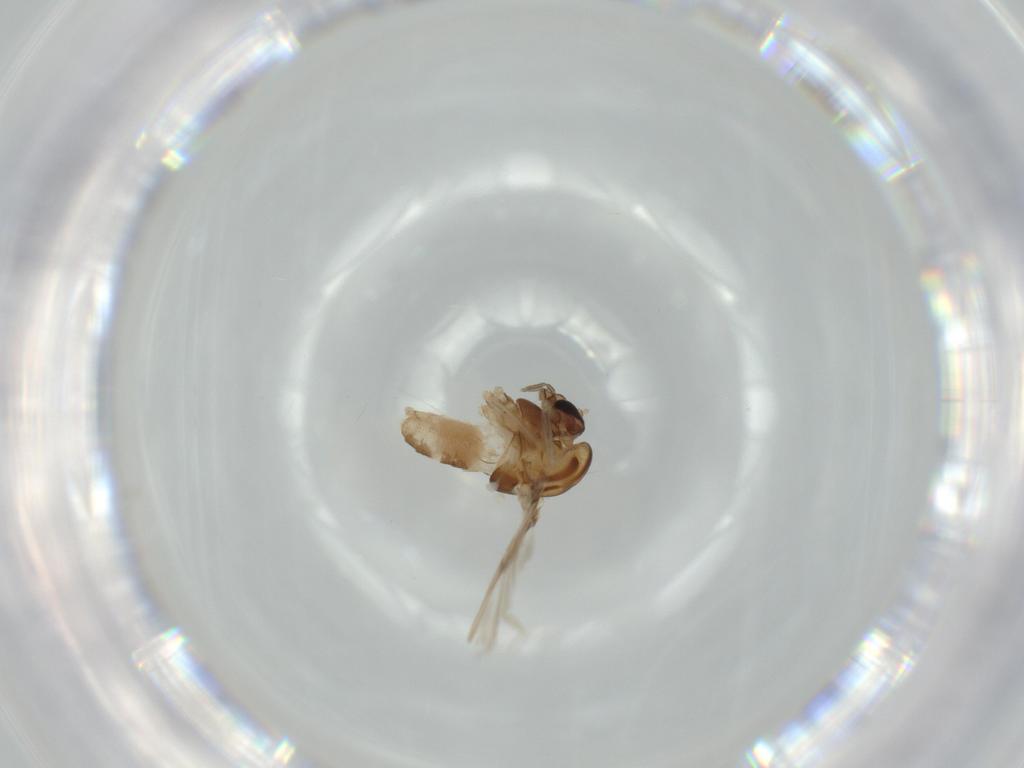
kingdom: Animalia
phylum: Arthropoda
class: Insecta
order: Diptera
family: Chironomidae
